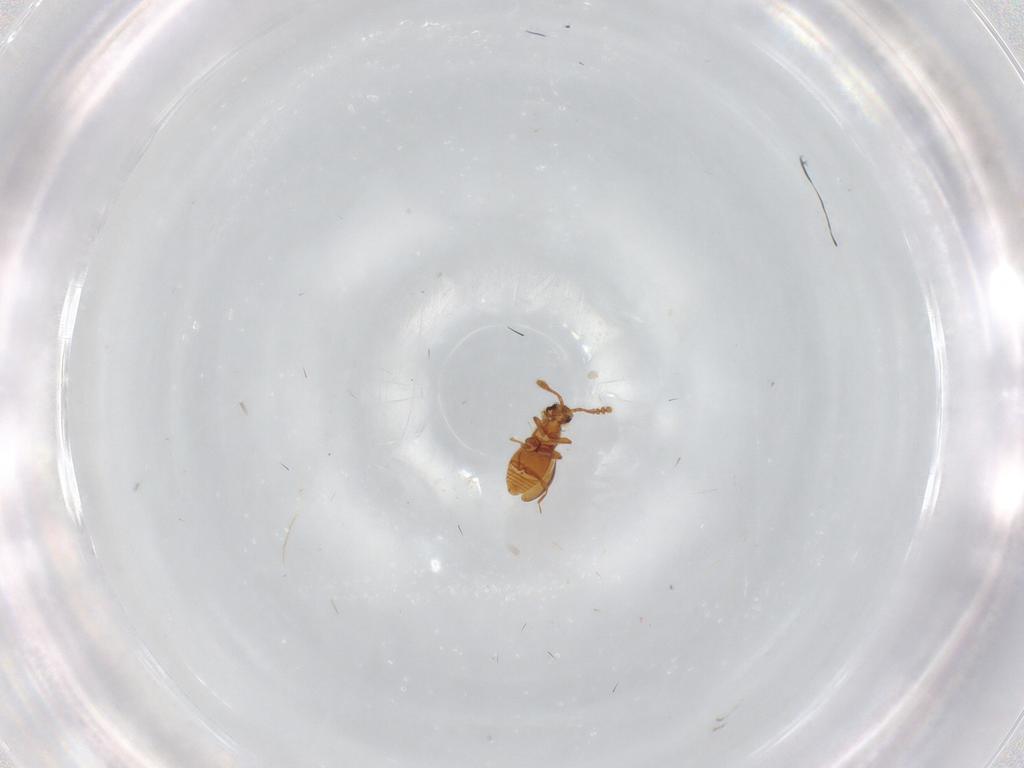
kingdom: Animalia
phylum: Arthropoda
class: Insecta
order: Coleoptera
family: Staphylinidae
